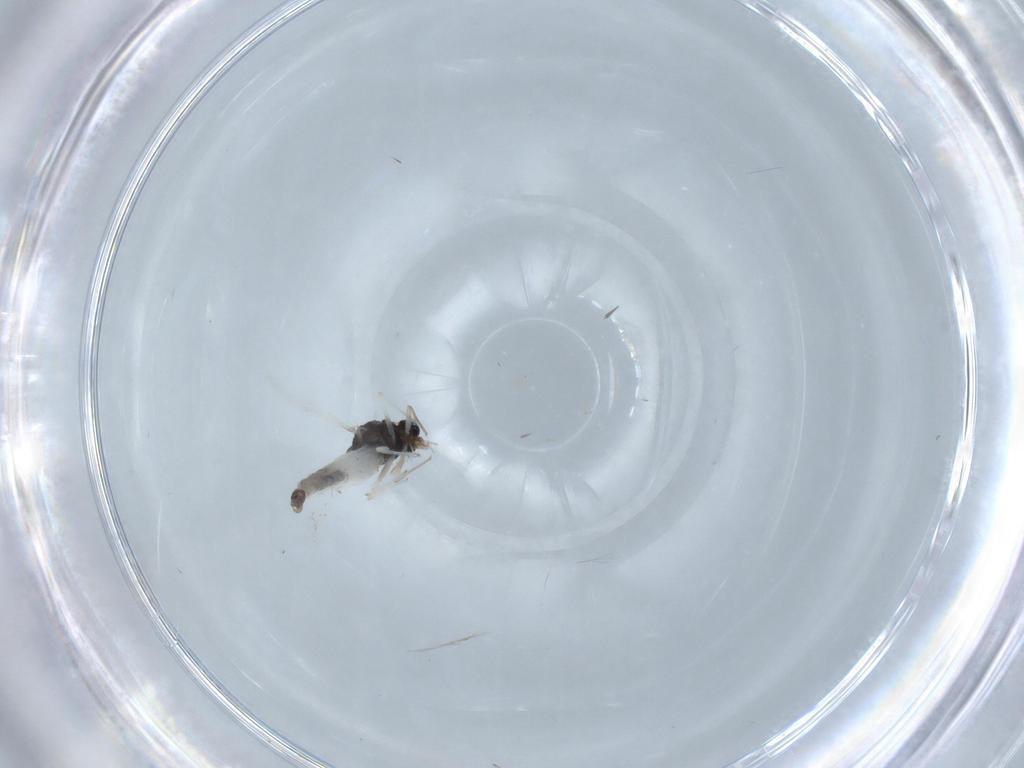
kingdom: Animalia
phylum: Arthropoda
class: Insecta
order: Diptera
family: Chironomidae
